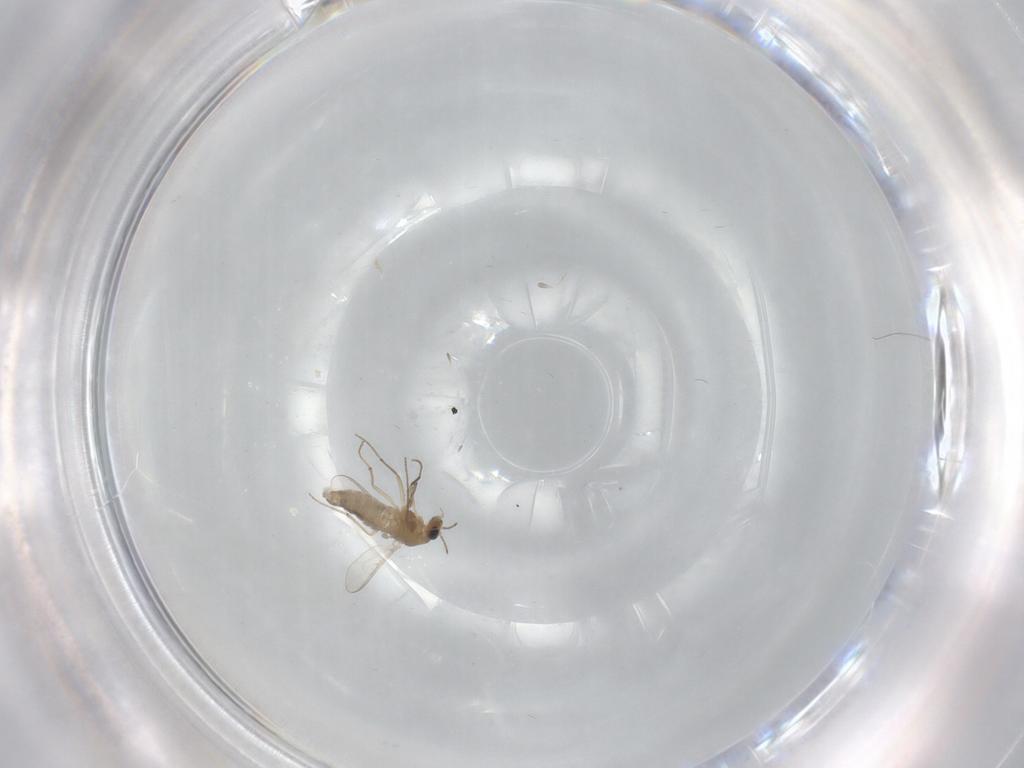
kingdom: Animalia
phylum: Arthropoda
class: Insecta
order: Diptera
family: Chironomidae
